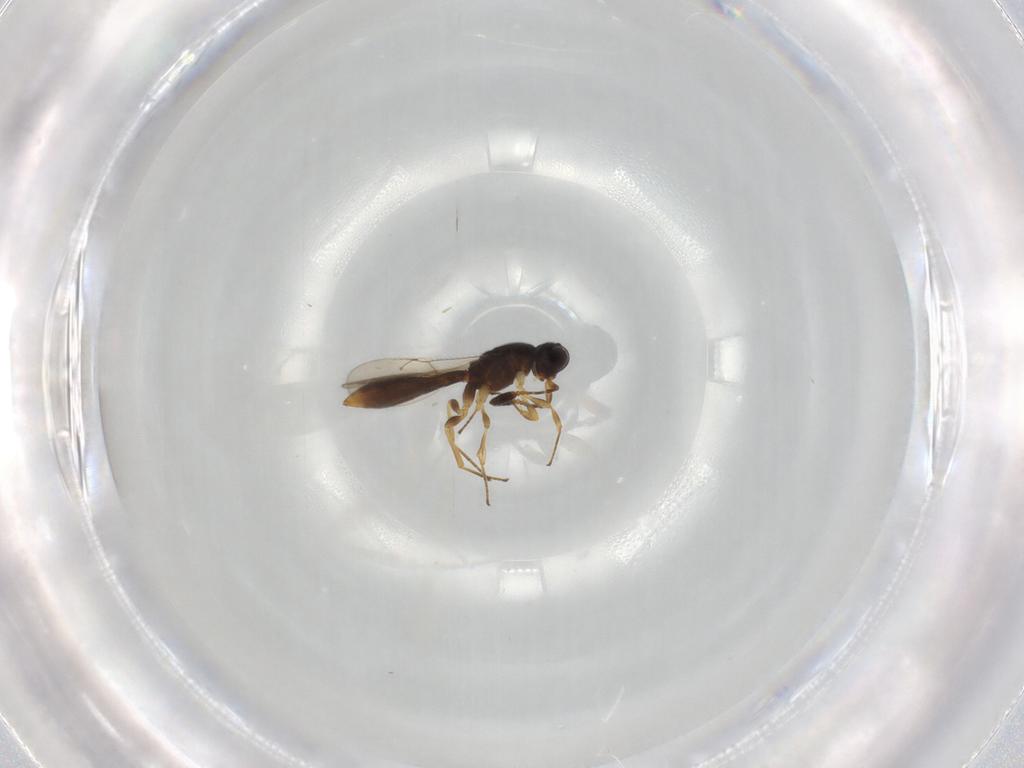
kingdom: Animalia
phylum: Arthropoda
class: Insecta
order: Hymenoptera
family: Scelionidae
